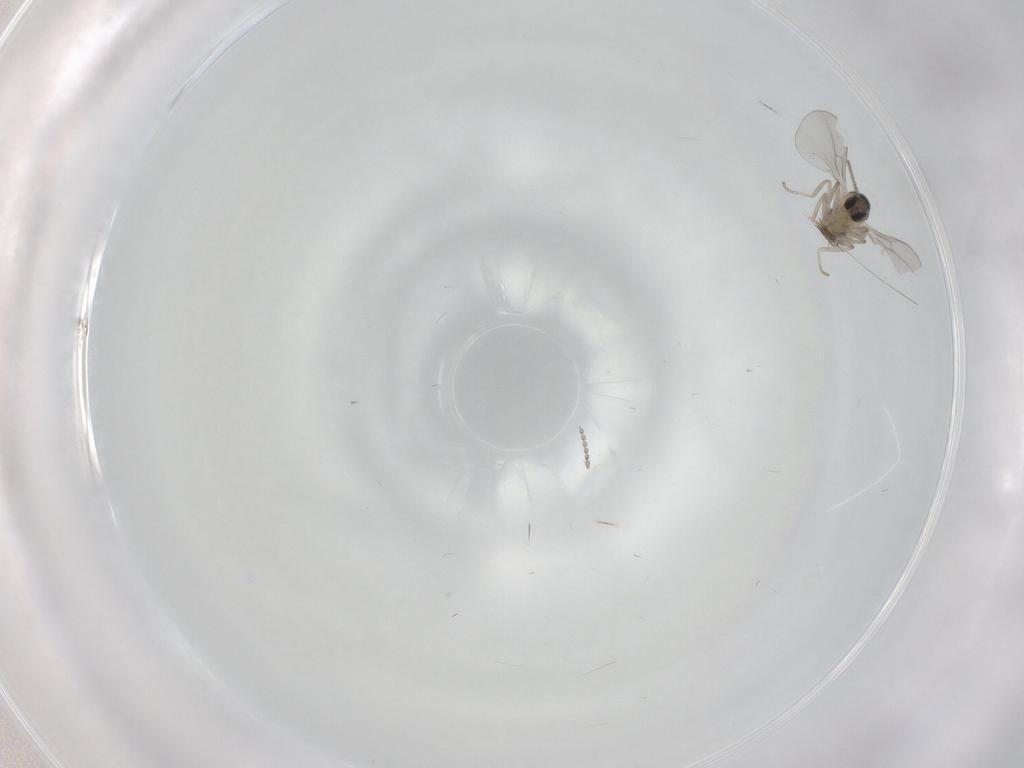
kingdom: Animalia
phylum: Arthropoda
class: Insecta
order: Diptera
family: Cecidomyiidae
